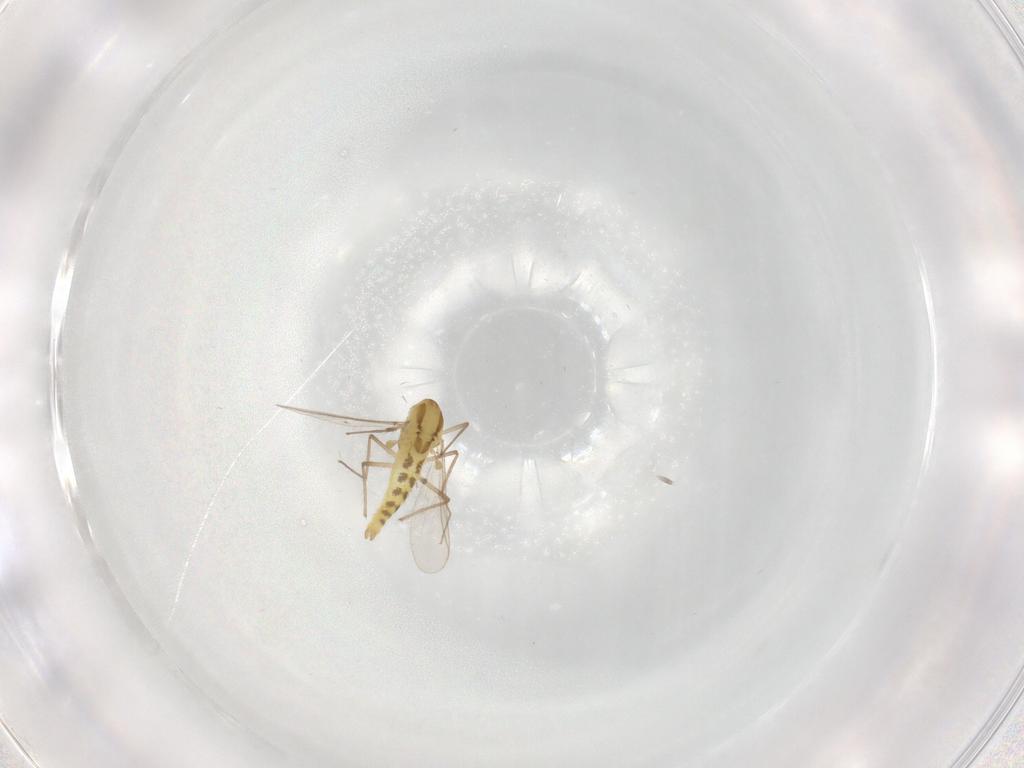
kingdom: Animalia
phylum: Arthropoda
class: Insecta
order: Diptera
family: Chironomidae
